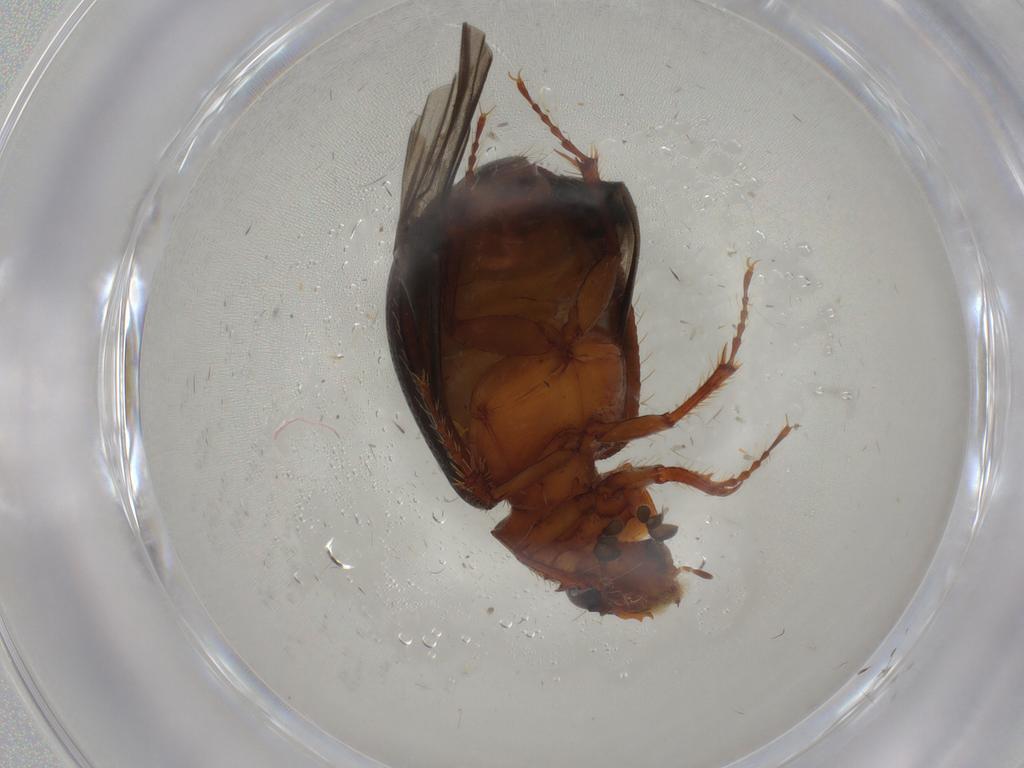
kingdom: Animalia
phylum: Arthropoda
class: Insecta
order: Coleoptera
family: Hybosoridae
